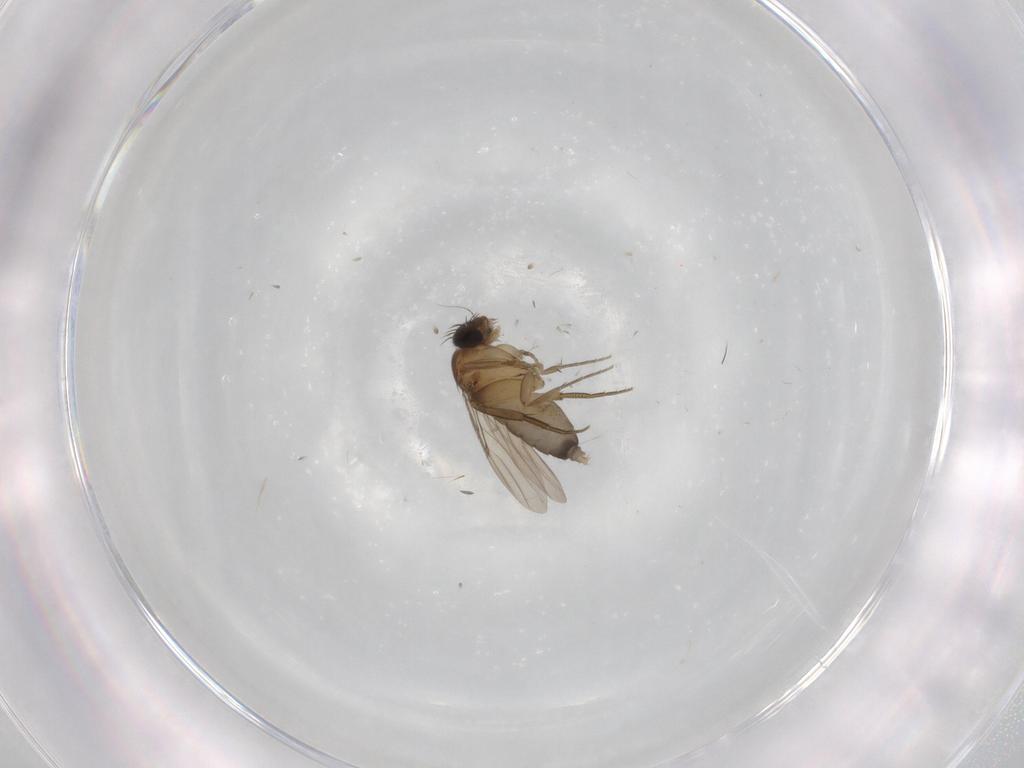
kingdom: Animalia
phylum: Arthropoda
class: Insecta
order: Diptera
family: Phoridae
